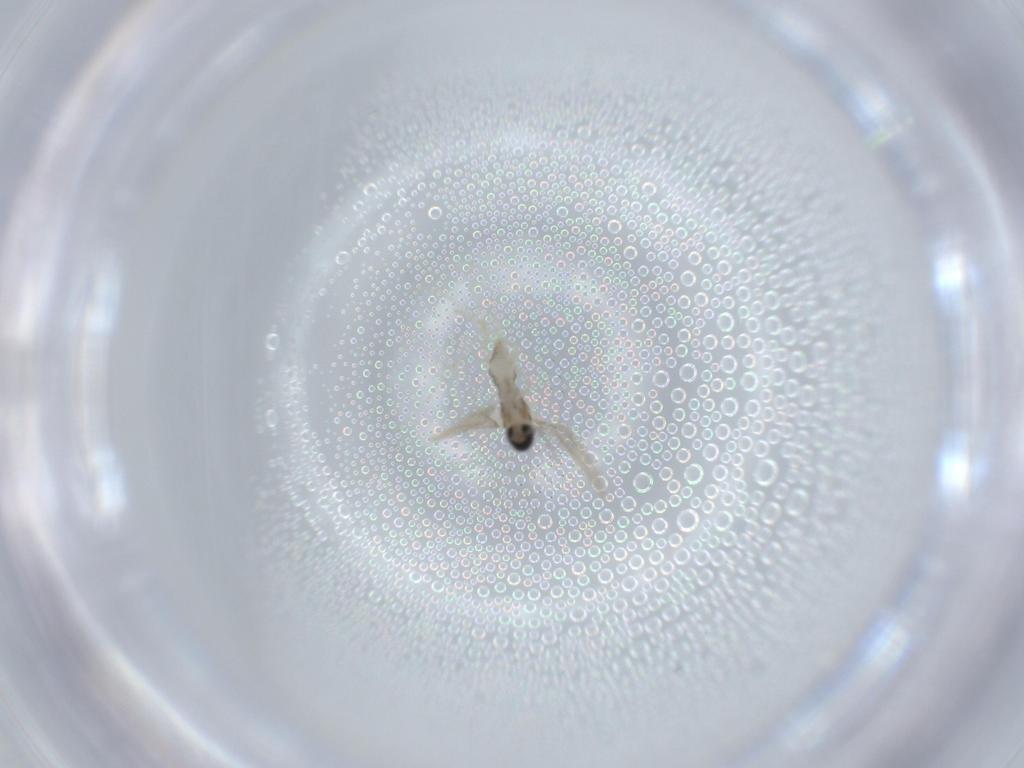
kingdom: Animalia
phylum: Arthropoda
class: Insecta
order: Diptera
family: Cecidomyiidae
